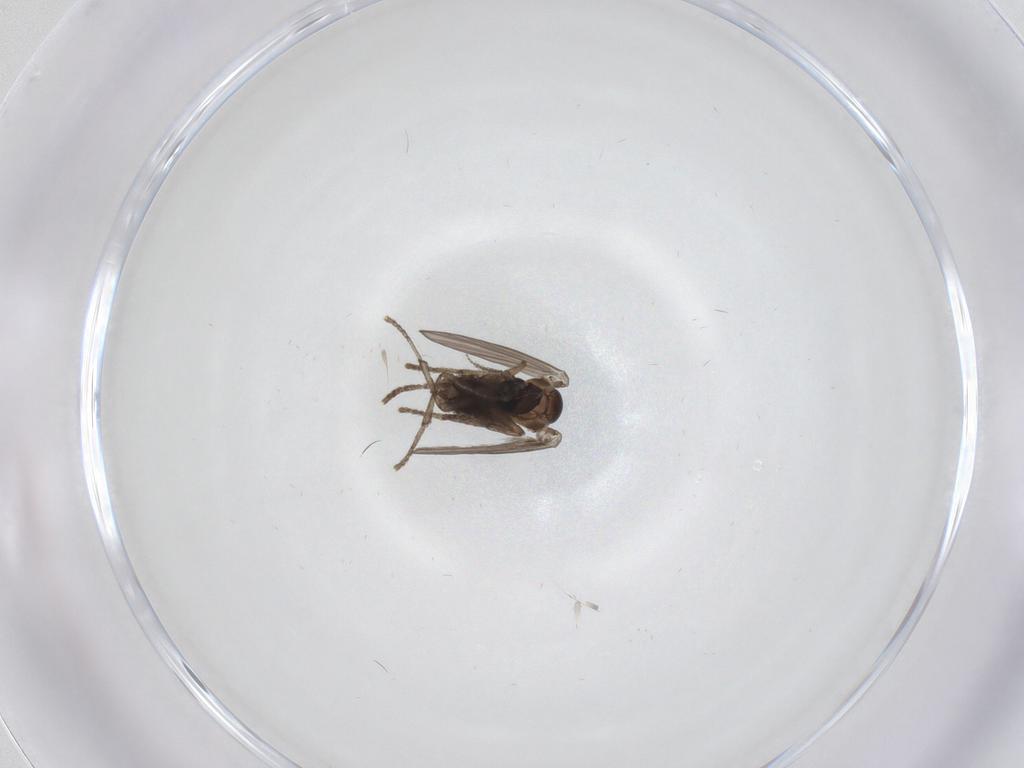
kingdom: Animalia
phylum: Arthropoda
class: Insecta
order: Diptera
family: Psychodidae
